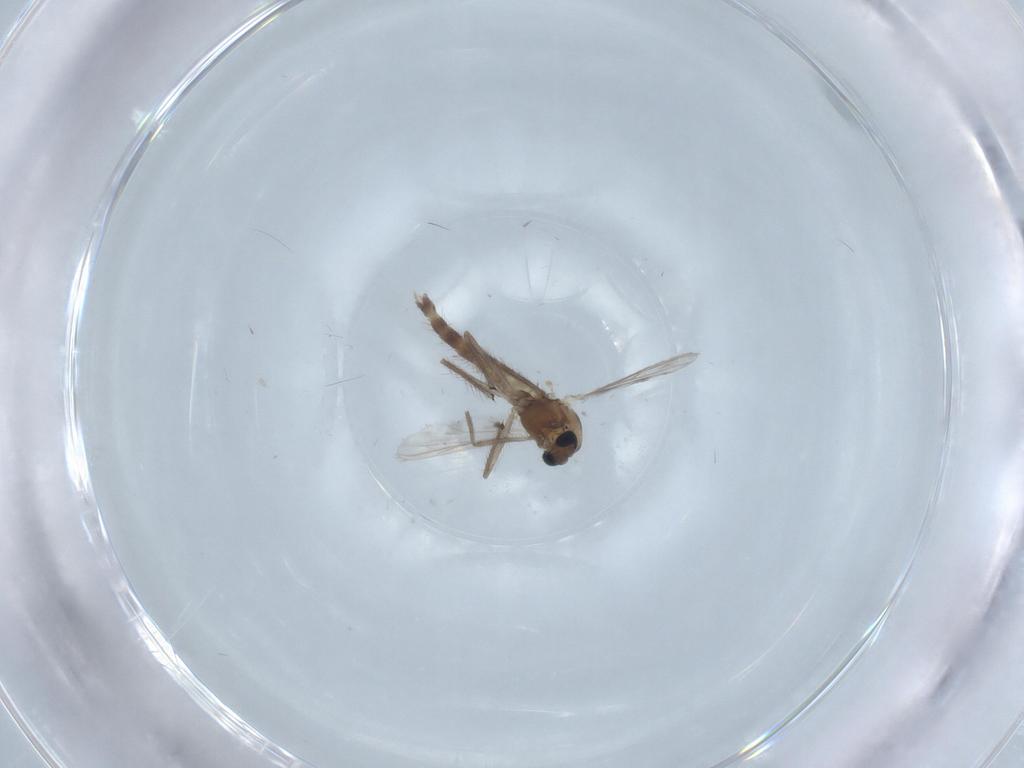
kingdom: Animalia
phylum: Arthropoda
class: Insecta
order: Diptera
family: Chironomidae
